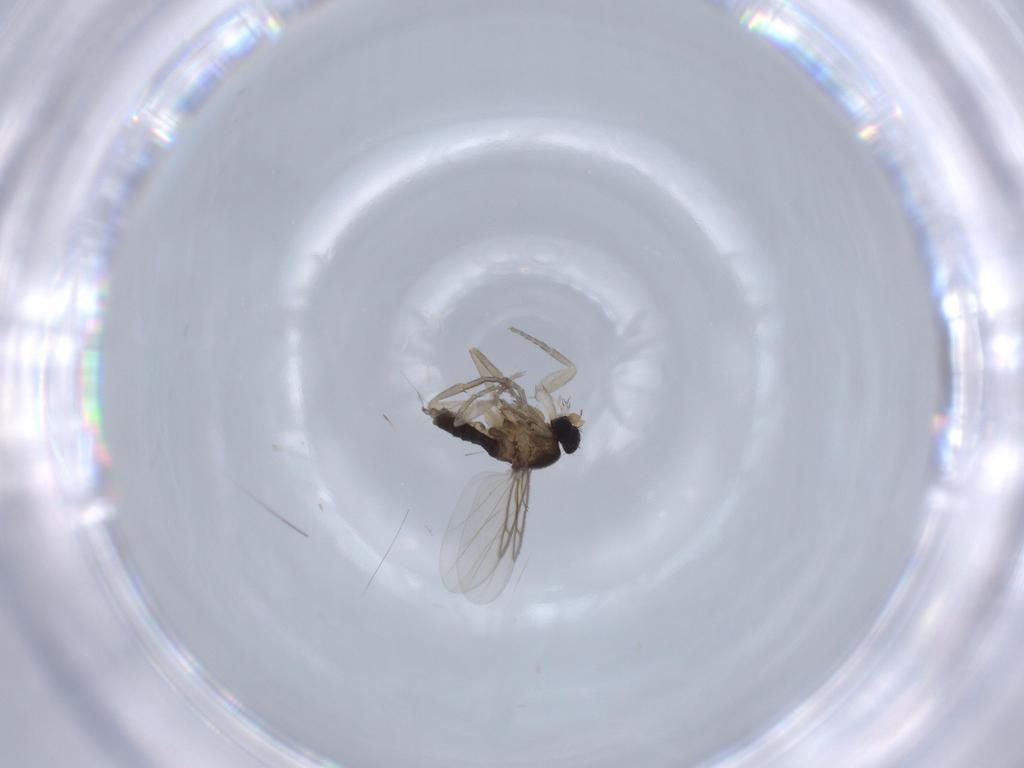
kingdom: Animalia
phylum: Arthropoda
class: Insecta
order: Diptera
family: Phoridae
